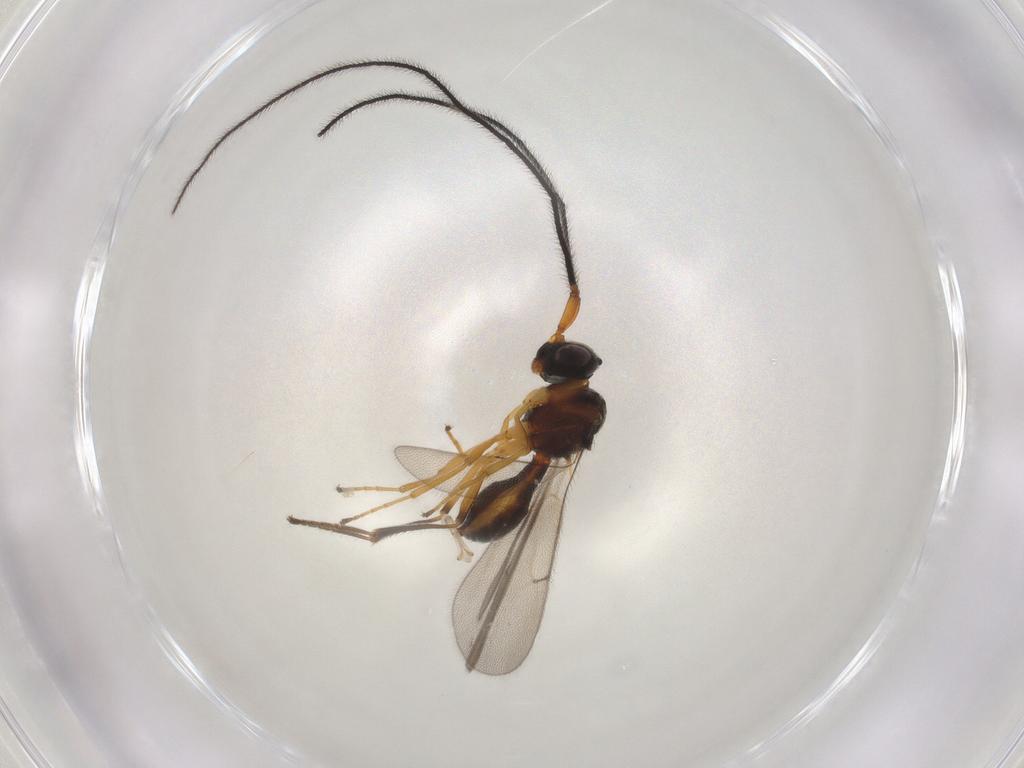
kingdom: Animalia
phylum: Arthropoda
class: Insecta
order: Hymenoptera
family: Scelionidae
